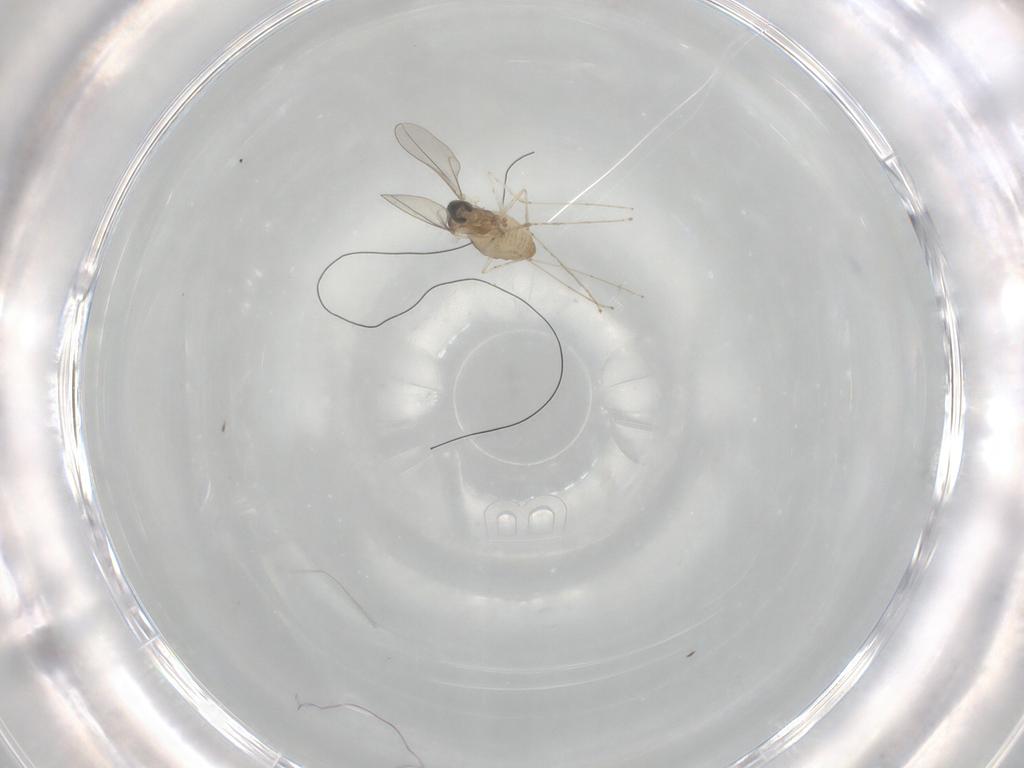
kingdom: Animalia
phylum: Arthropoda
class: Insecta
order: Diptera
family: Cecidomyiidae
